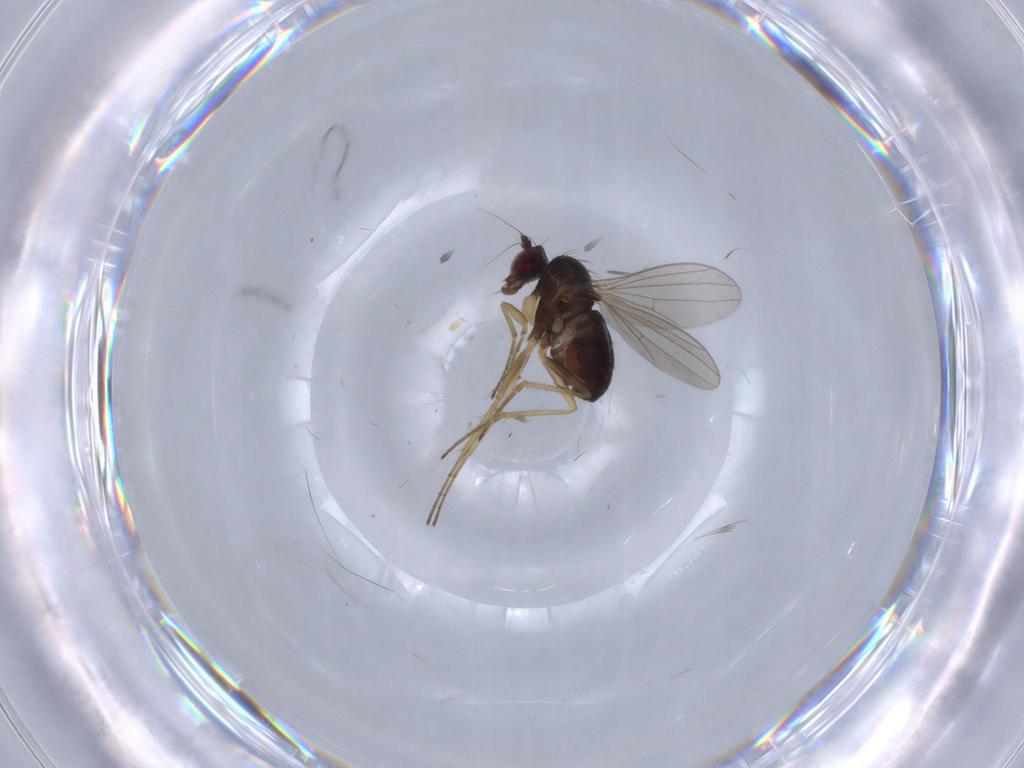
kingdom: Animalia
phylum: Arthropoda
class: Insecta
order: Diptera
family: Dolichopodidae
